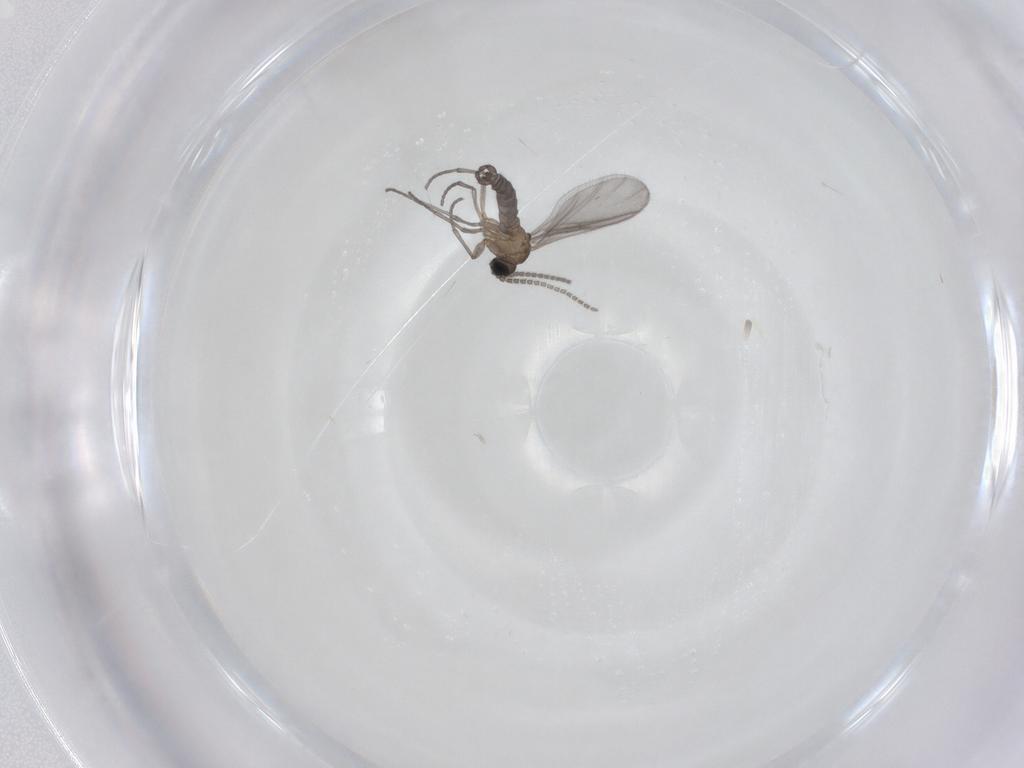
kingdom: Animalia
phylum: Arthropoda
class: Insecta
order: Diptera
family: Sciaridae
